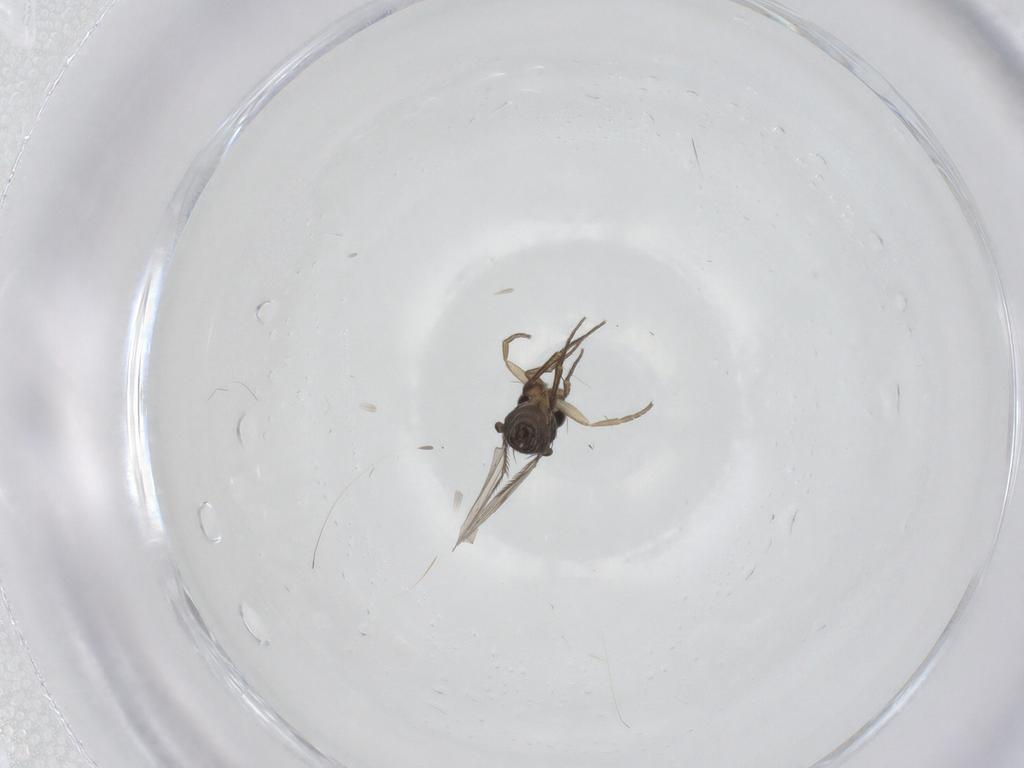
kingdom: Animalia
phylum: Arthropoda
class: Insecta
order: Diptera
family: Phoridae
